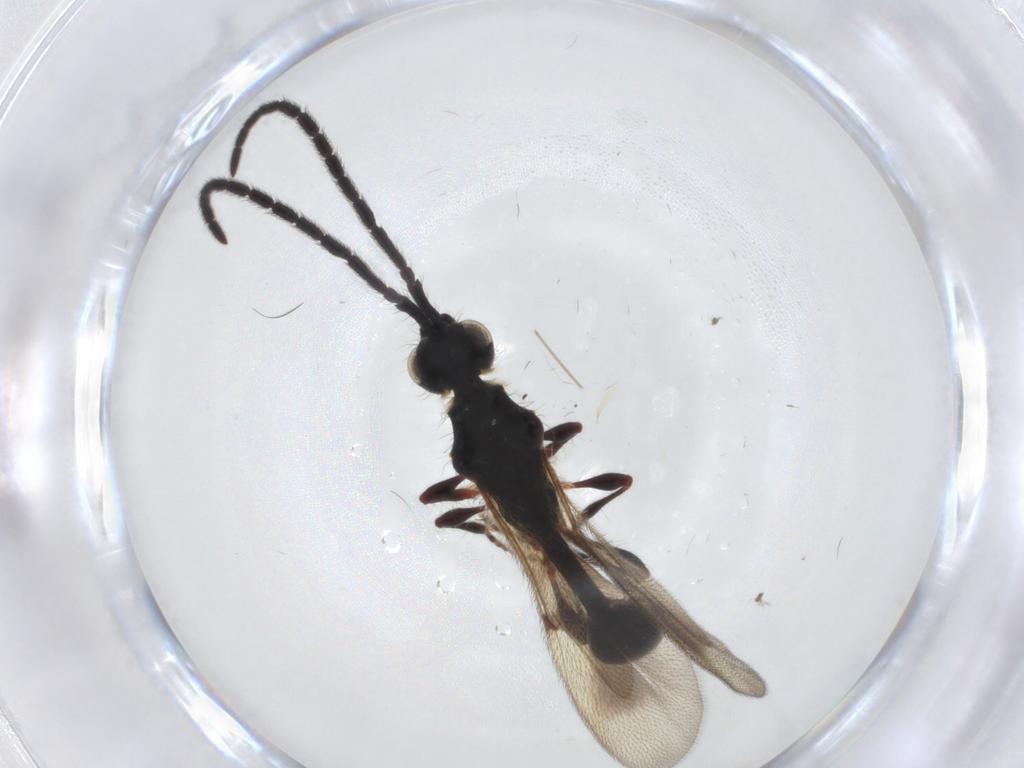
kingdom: Animalia
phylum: Arthropoda
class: Insecta
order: Hymenoptera
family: Diapriidae
